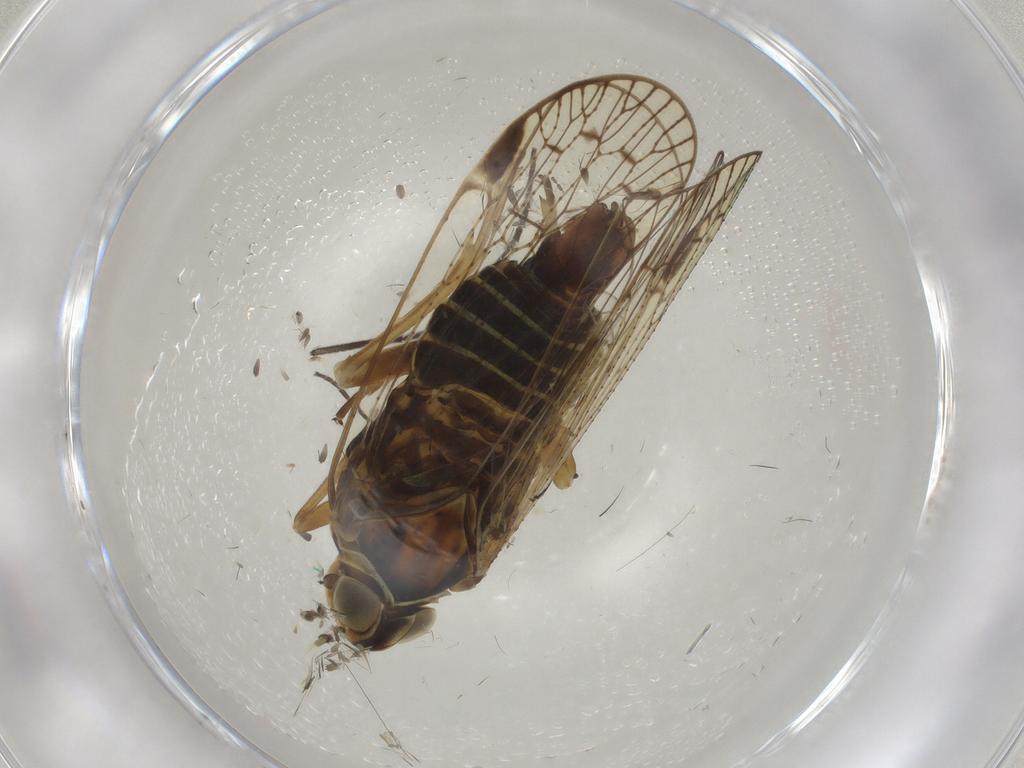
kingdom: Animalia
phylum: Arthropoda
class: Insecta
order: Hemiptera
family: Cixiidae
